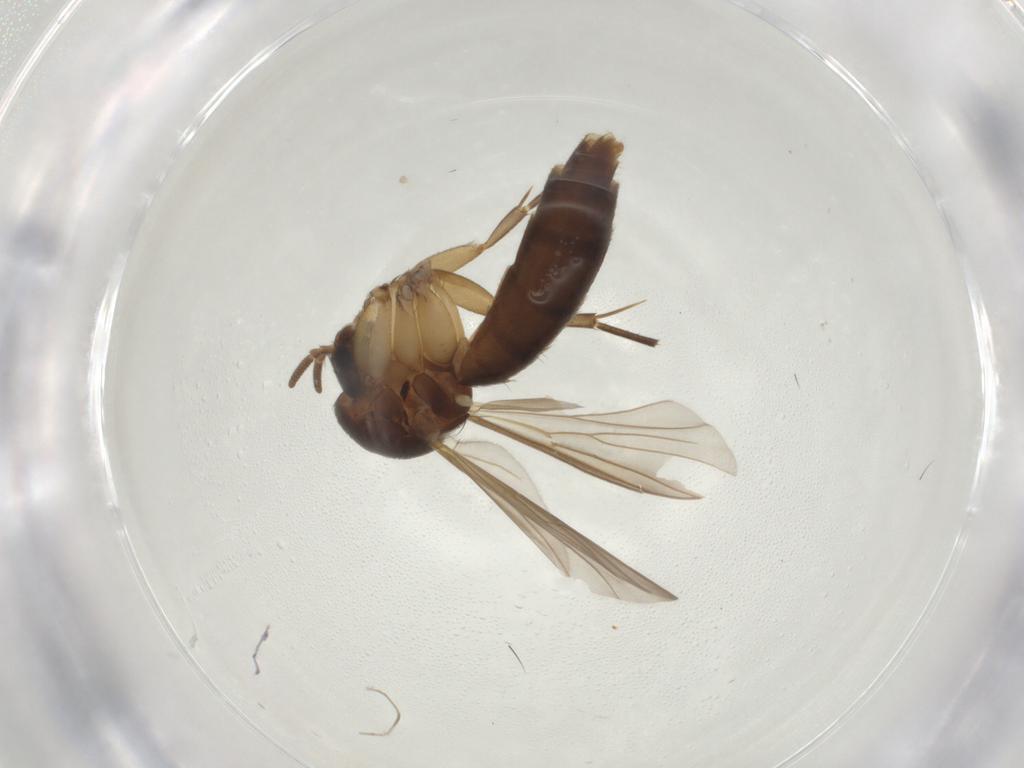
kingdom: Animalia
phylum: Arthropoda
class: Insecta
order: Diptera
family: Mycetophilidae
